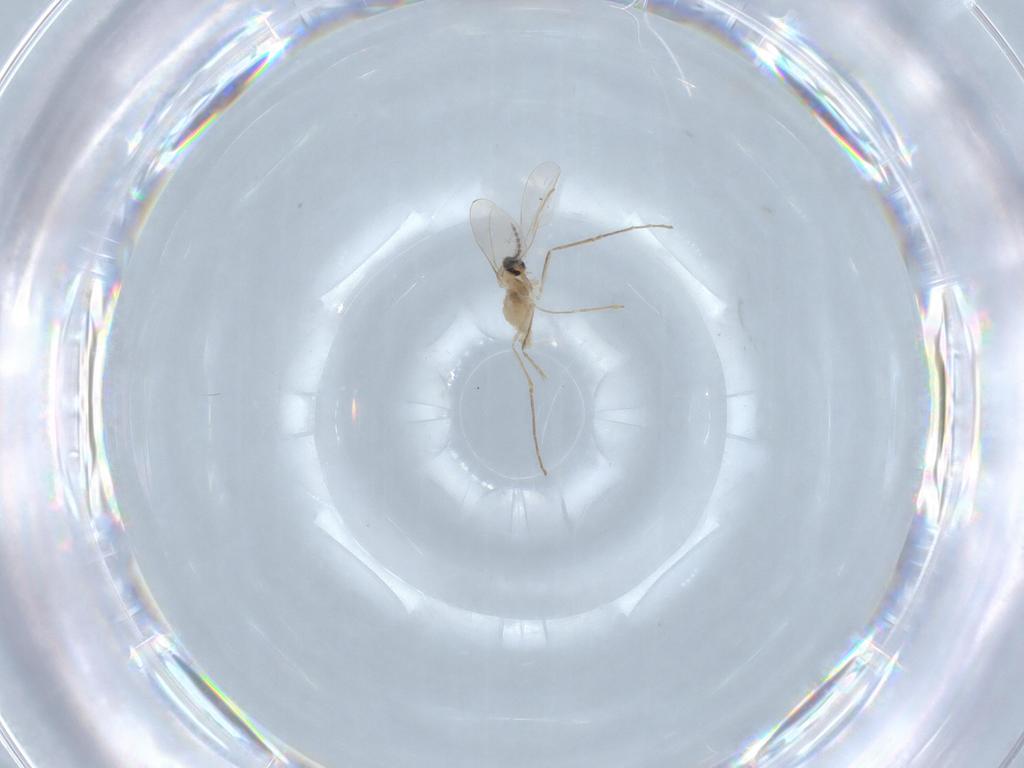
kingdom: Animalia
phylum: Arthropoda
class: Insecta
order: Diptera
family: Cecidomyiidae
